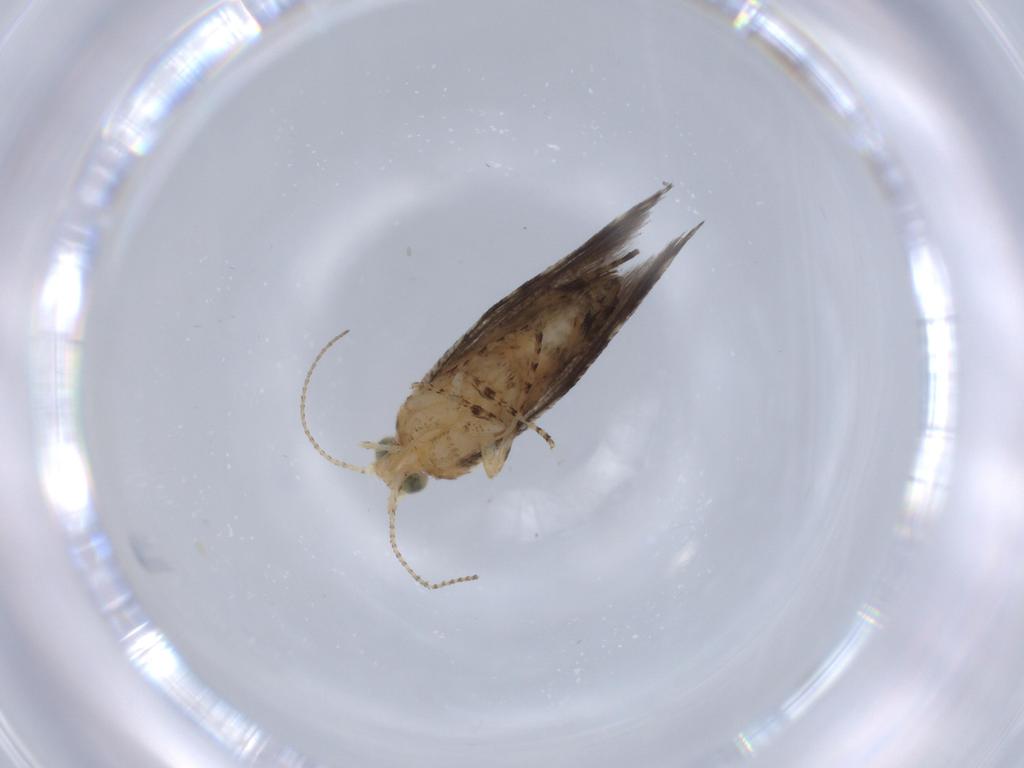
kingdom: Animalia
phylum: Arthropoda
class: Insecta
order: Lepidoptera
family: Glyphipterigidae
